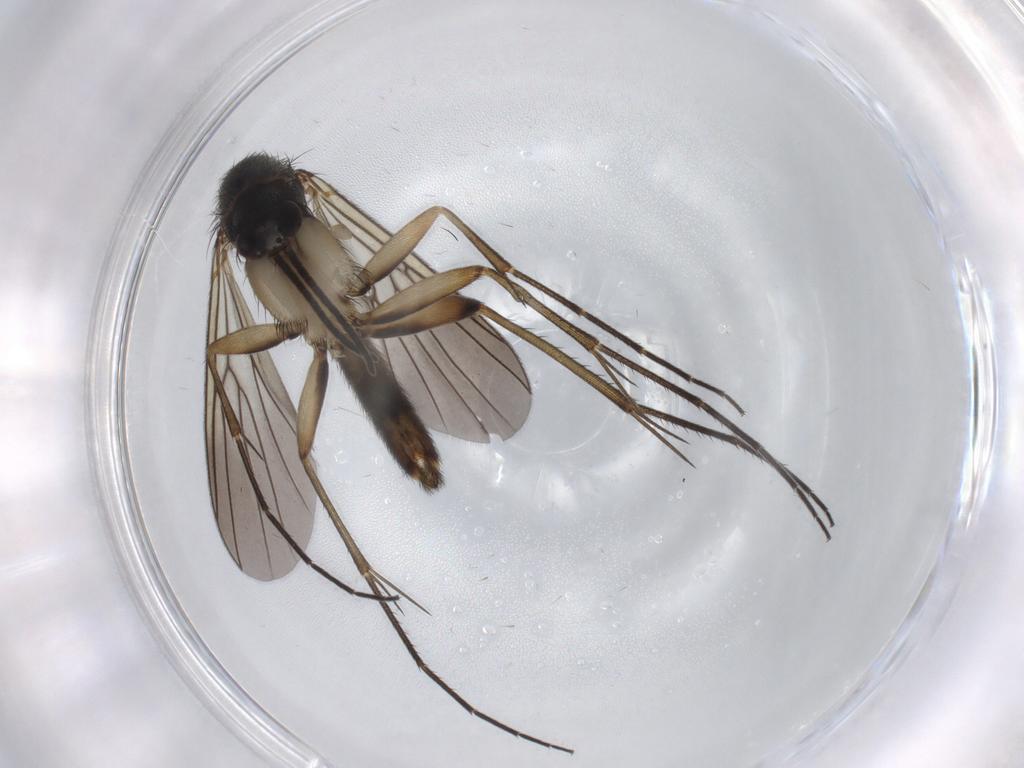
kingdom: Animalia
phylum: Arthropoda
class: Insecta
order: Diptera
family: Mycetophilidae
